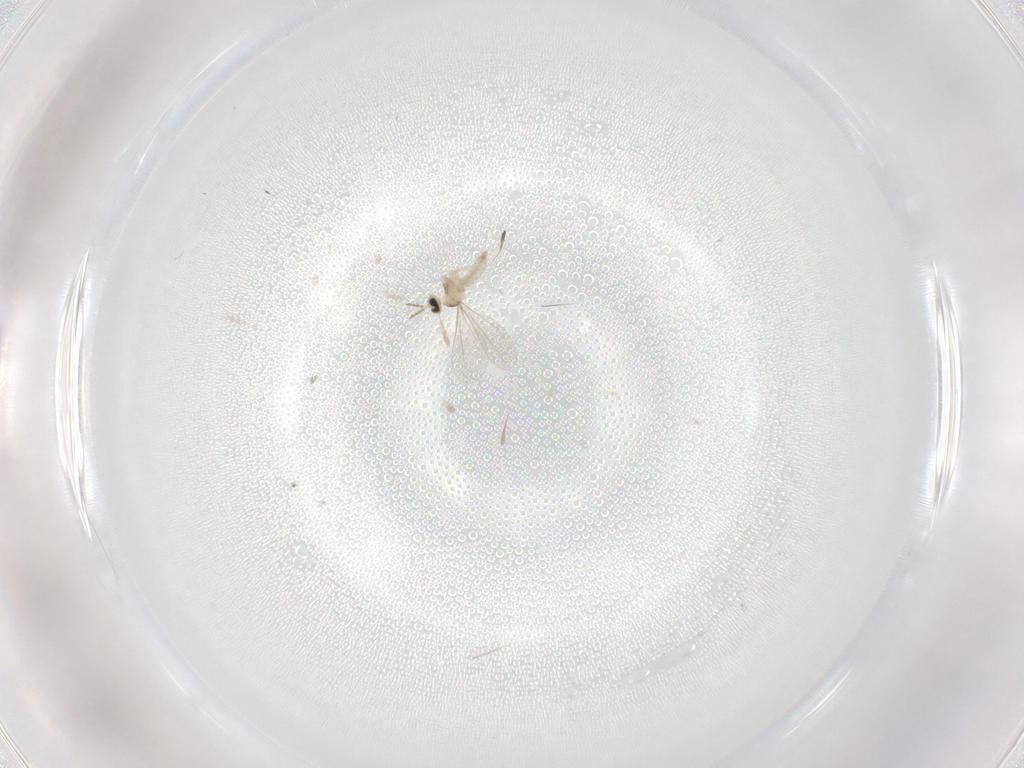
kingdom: Animalia
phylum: Arthropoda
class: Insecta
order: Diptera
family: Cecidomyiidae
